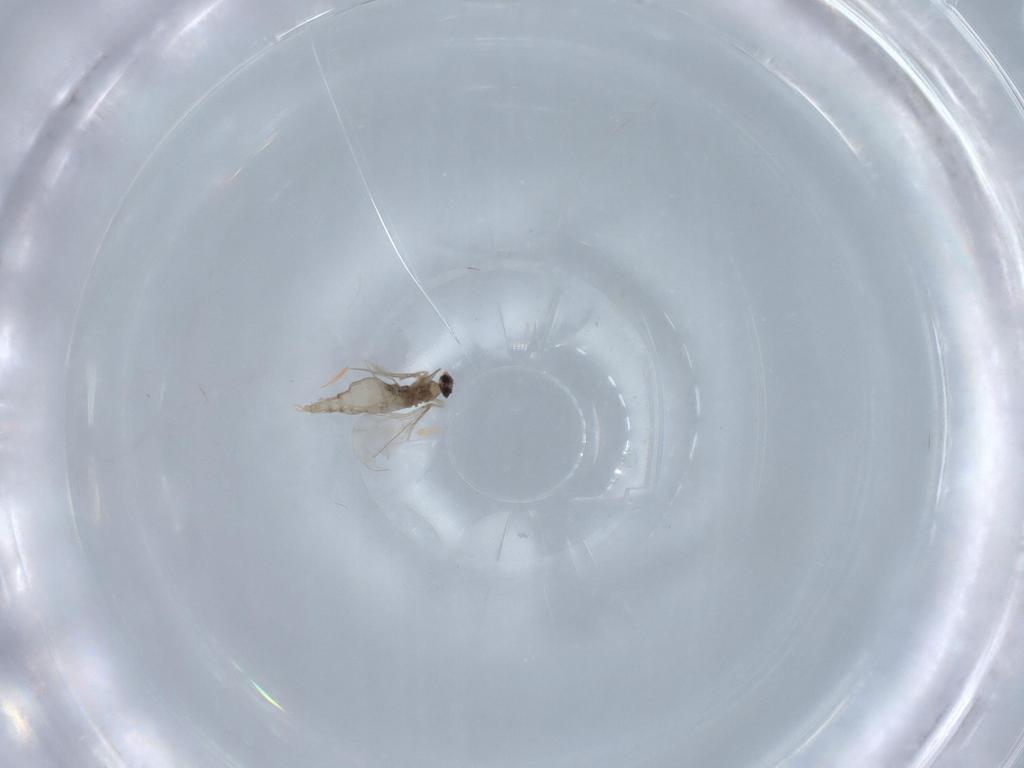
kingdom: Animalia
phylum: Arthropoda
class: Insecta
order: Diptera
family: Cecidomyiidae
